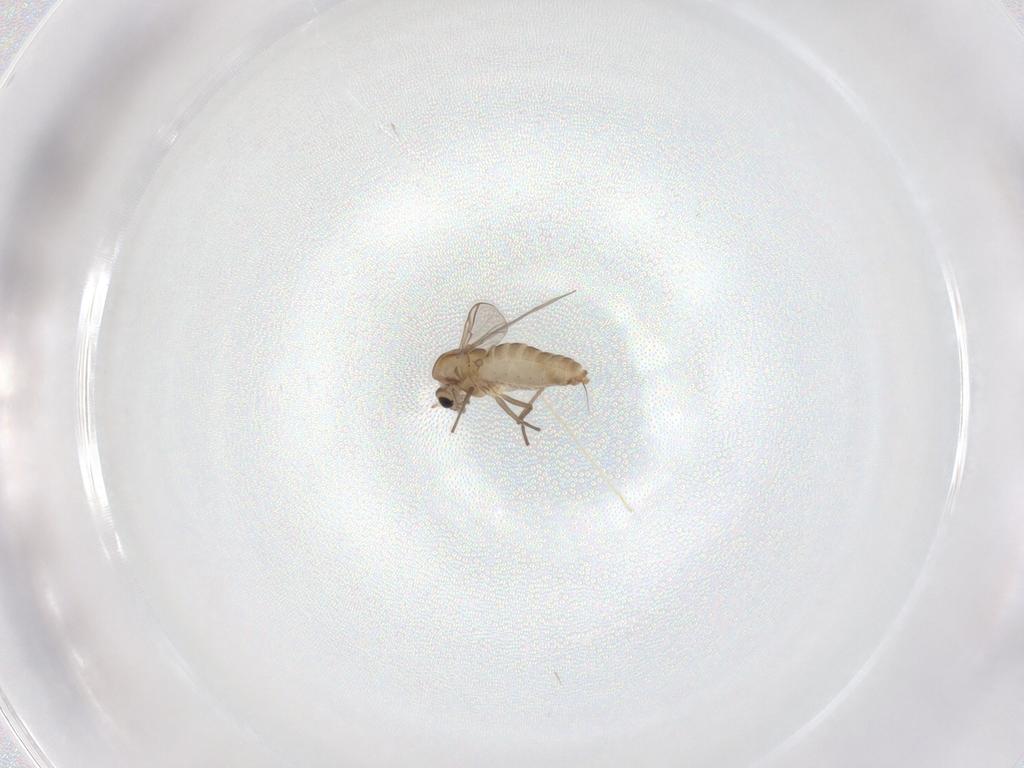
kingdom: Animalia
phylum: Arthropoda
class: Insecta
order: Diptera
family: Chironomidae
